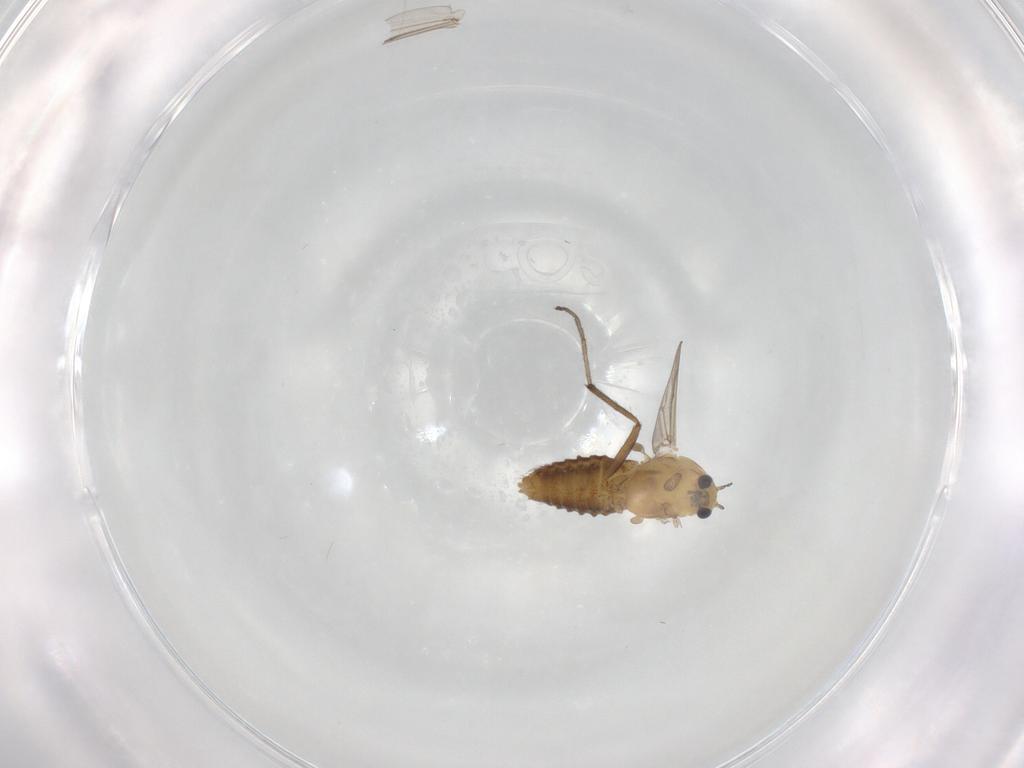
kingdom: Animalia
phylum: Arthropoda
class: Insecta
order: Diptera
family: Chironomidae
